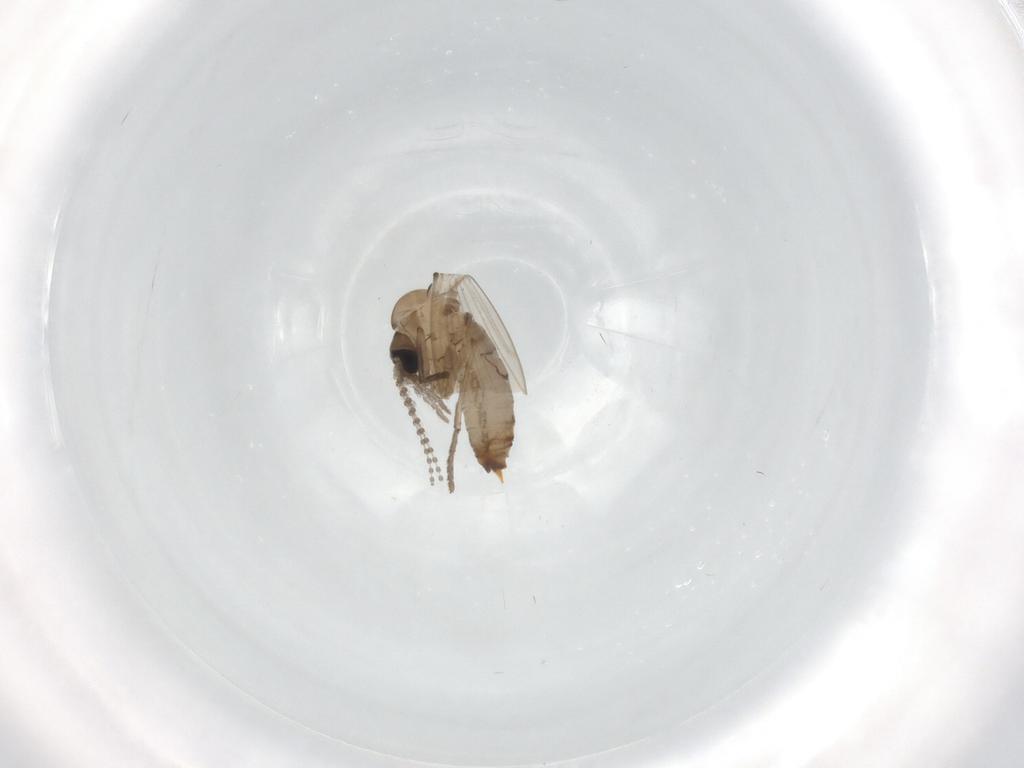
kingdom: Animalia
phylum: Arthropoda
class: Insecta
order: Diptera
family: Psychodidae
